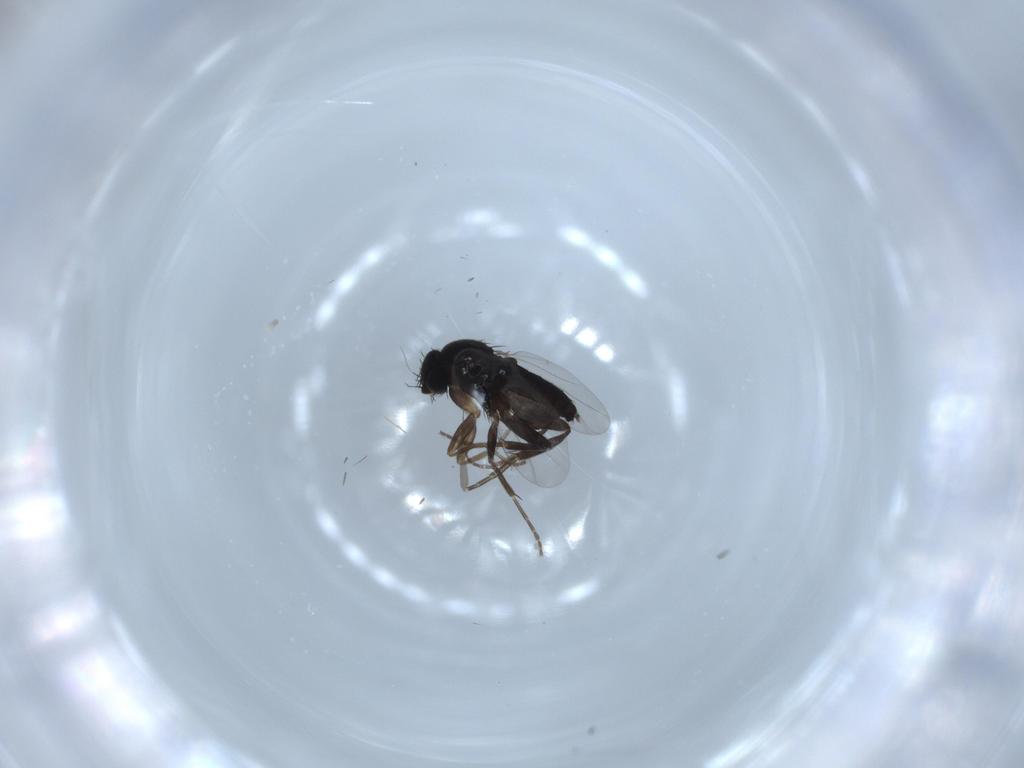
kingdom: Animalia
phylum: Arthropoda
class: Insecta
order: Diptera
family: Phoridae
